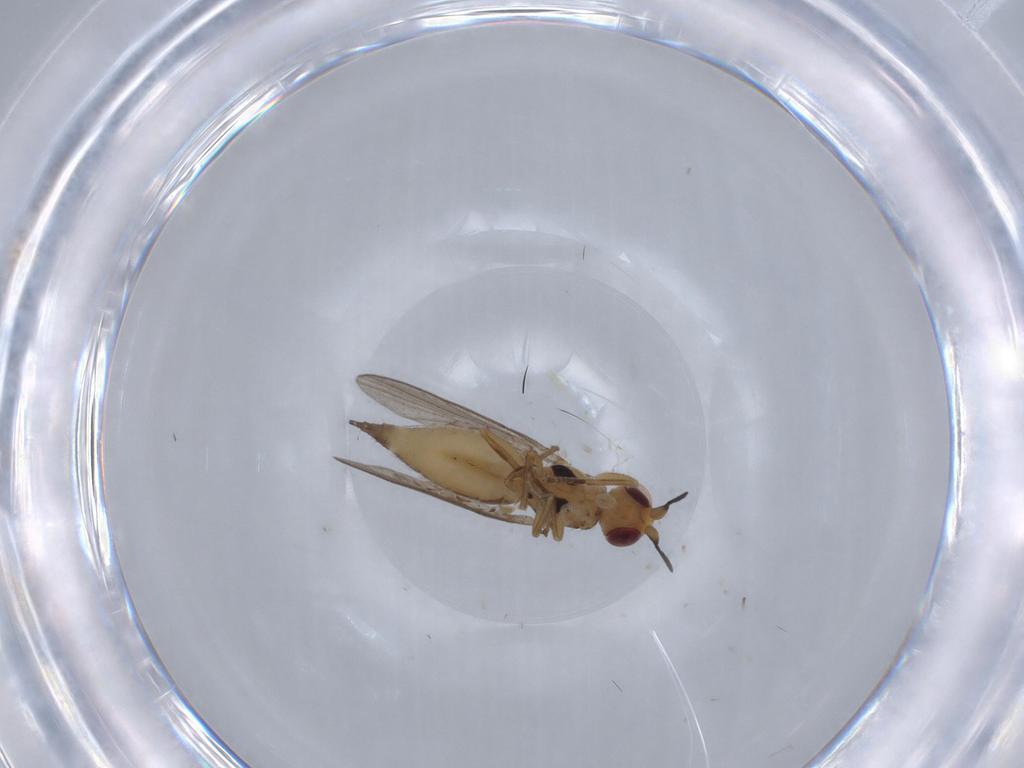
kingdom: Animalia
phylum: Arthropoda
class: Insecta
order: Diptera
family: Chloropidae
